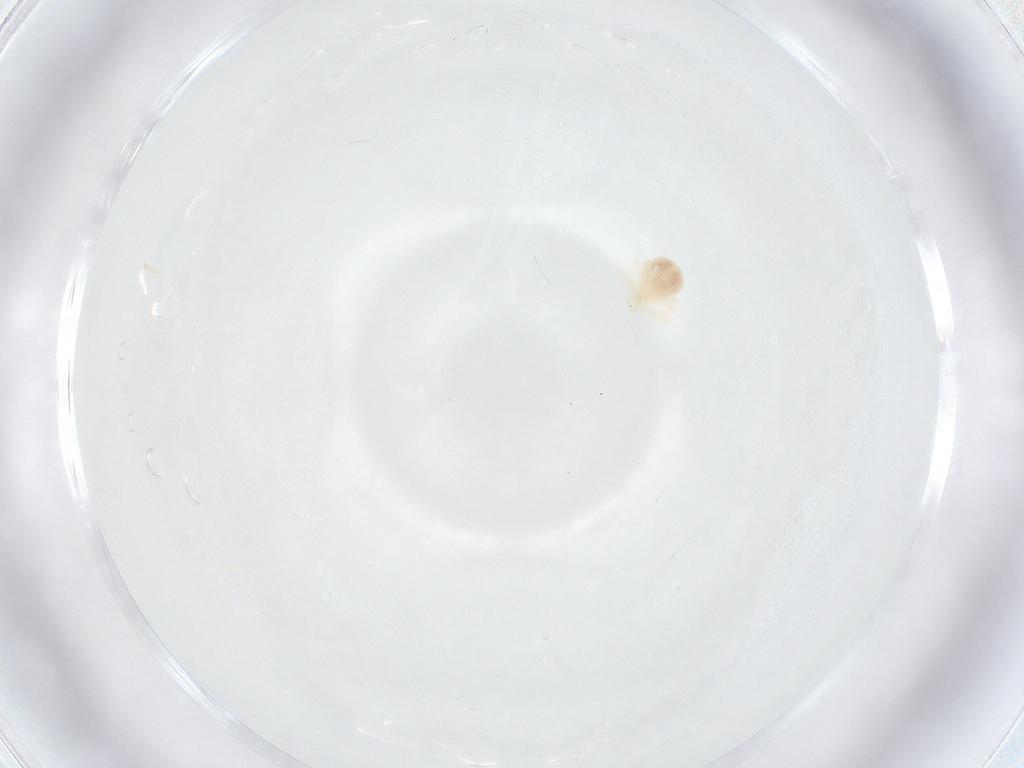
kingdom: Animalia
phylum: Arthropoda
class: Arachnida
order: Trombidiformes
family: Anystidae
